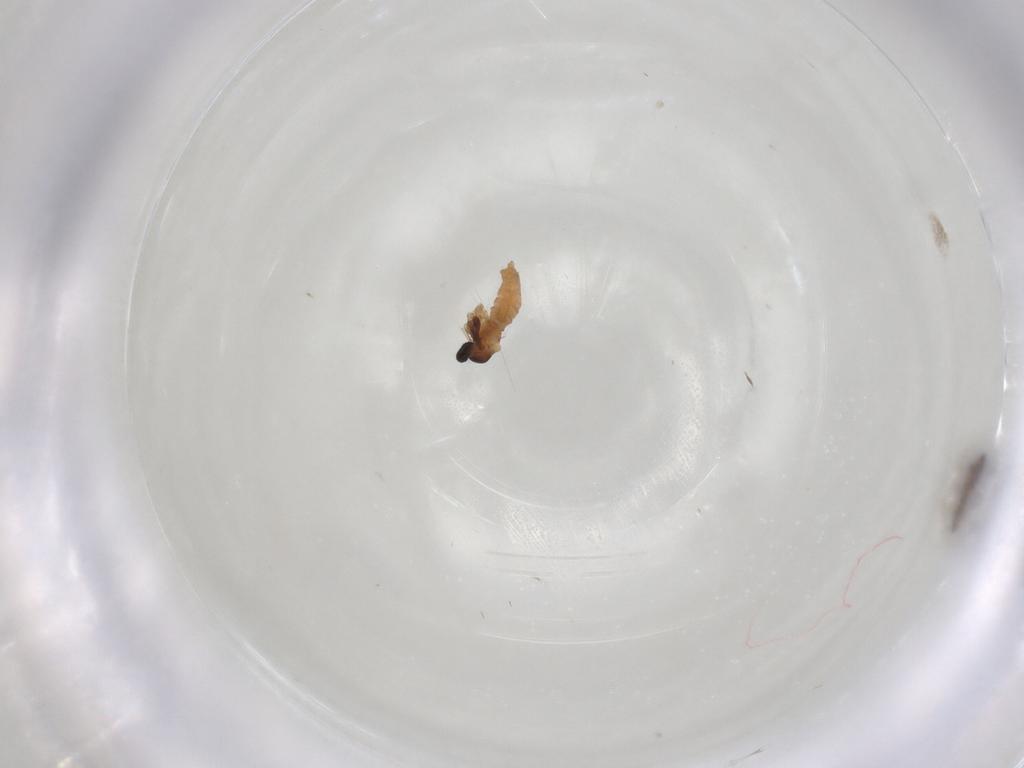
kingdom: Animalia
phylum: Arthropoda
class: Insecta
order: Diptera
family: Cecidomyiidae
